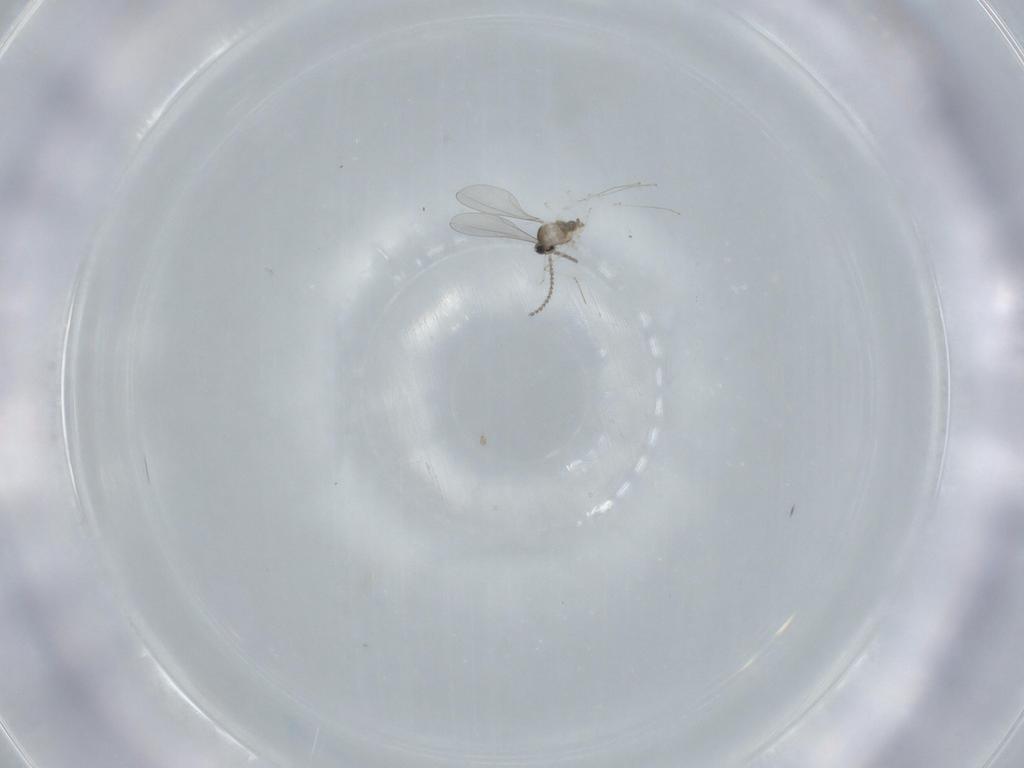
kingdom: Animalia
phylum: Arthropoda
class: Insecta
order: Diptera
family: Cecidomyiidae
